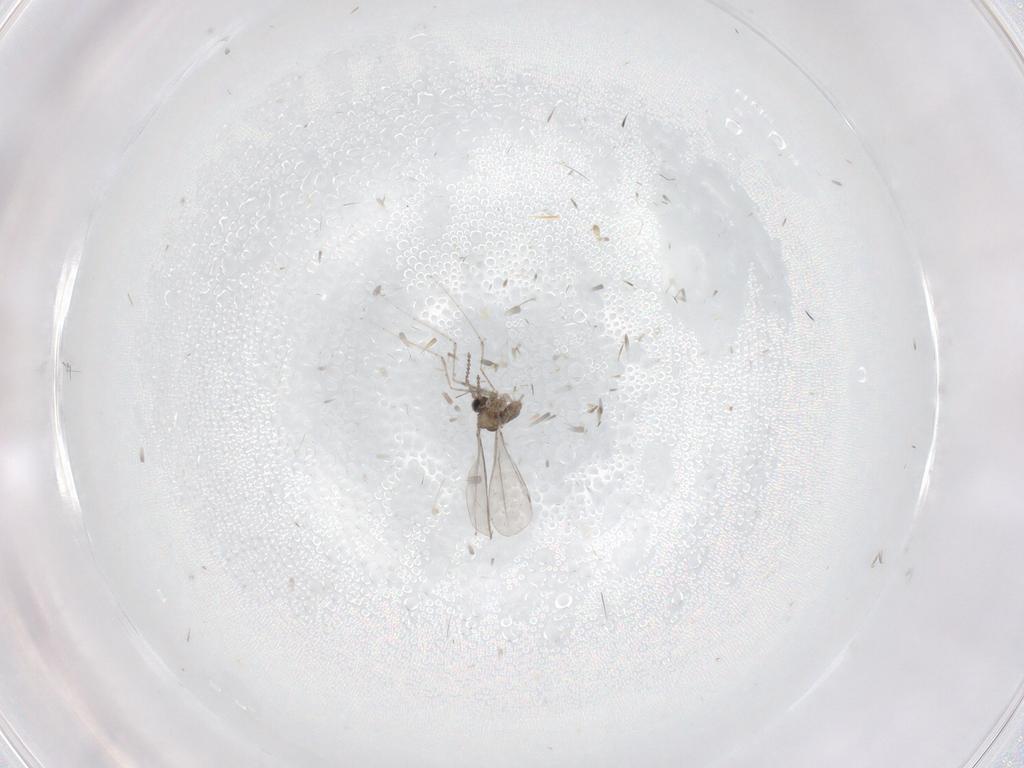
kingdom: Animalia
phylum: Arthropoda
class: Insecta
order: Diptera
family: Cecidomyiidae
